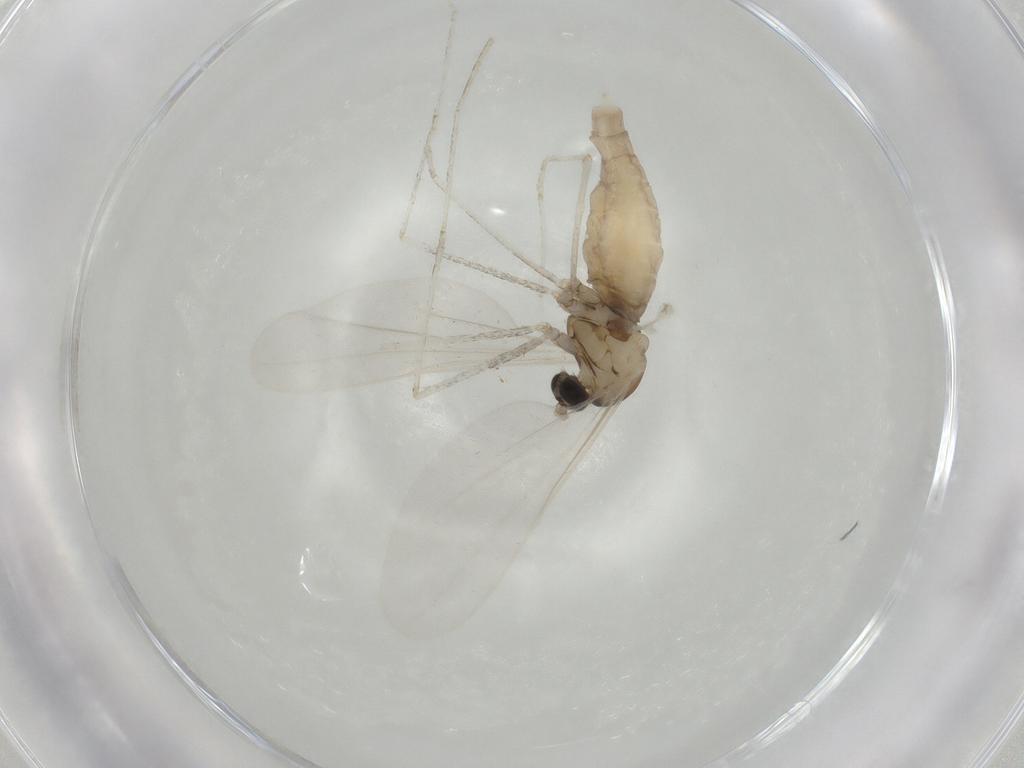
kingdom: Animalia
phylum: Arthropoda
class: Insecta
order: Diptera
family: Cecidomyiidae
